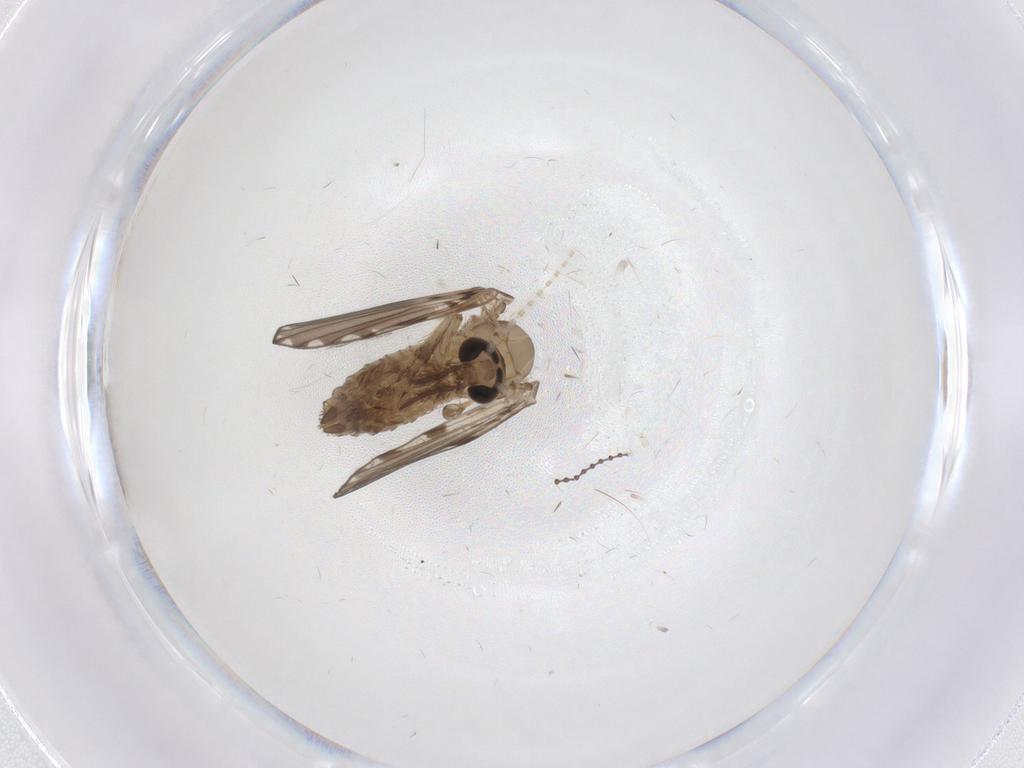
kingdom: Animalia
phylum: Arthropoda
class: Insecta
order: Diptera
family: Psychodidae
